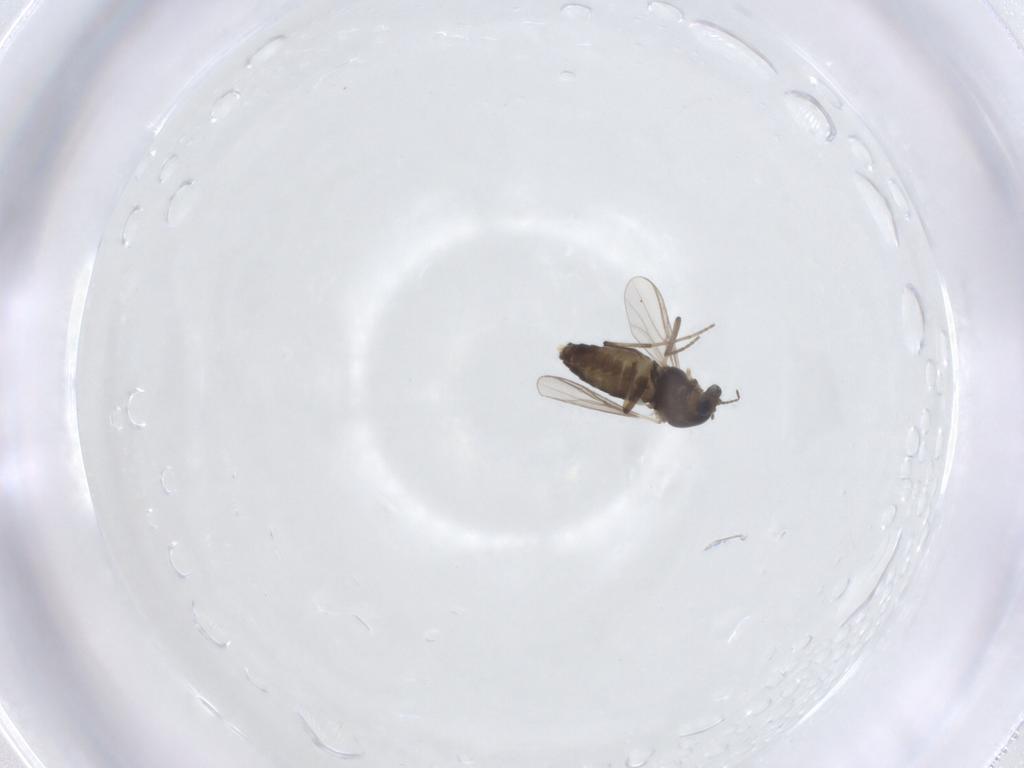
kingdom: Animalia
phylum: Arthropoda
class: Insecta
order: Diptera
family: Chironomidae
